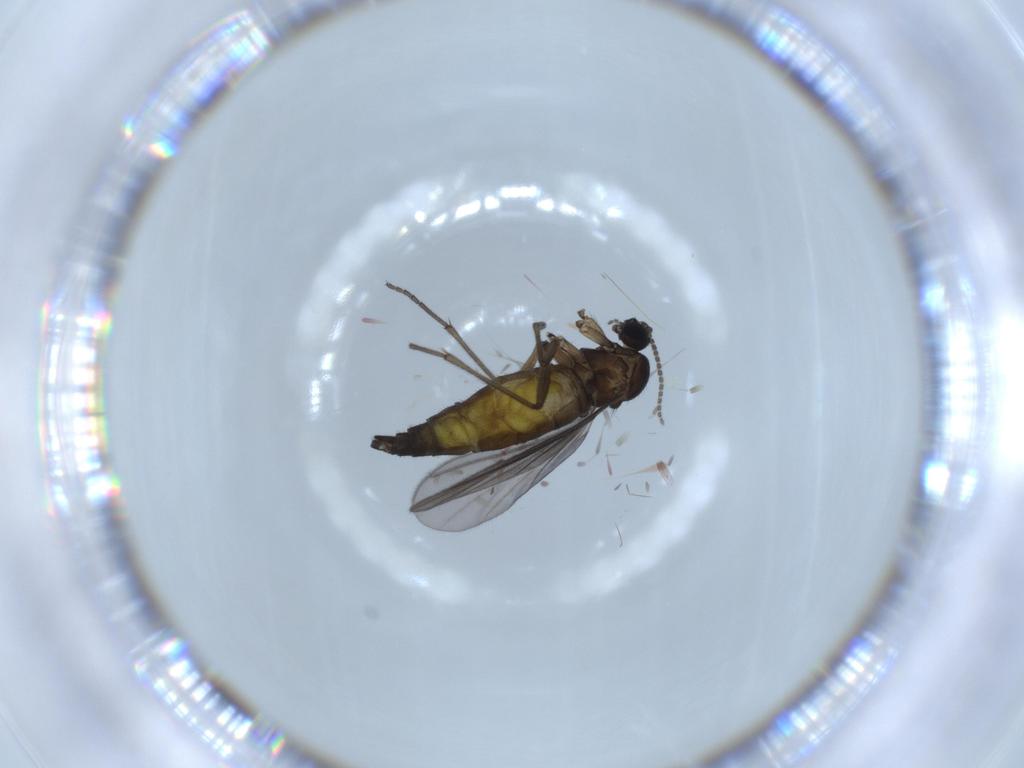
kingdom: Animalia
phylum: Arthropoda
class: Insecta
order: Diptera
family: Sciaridae
